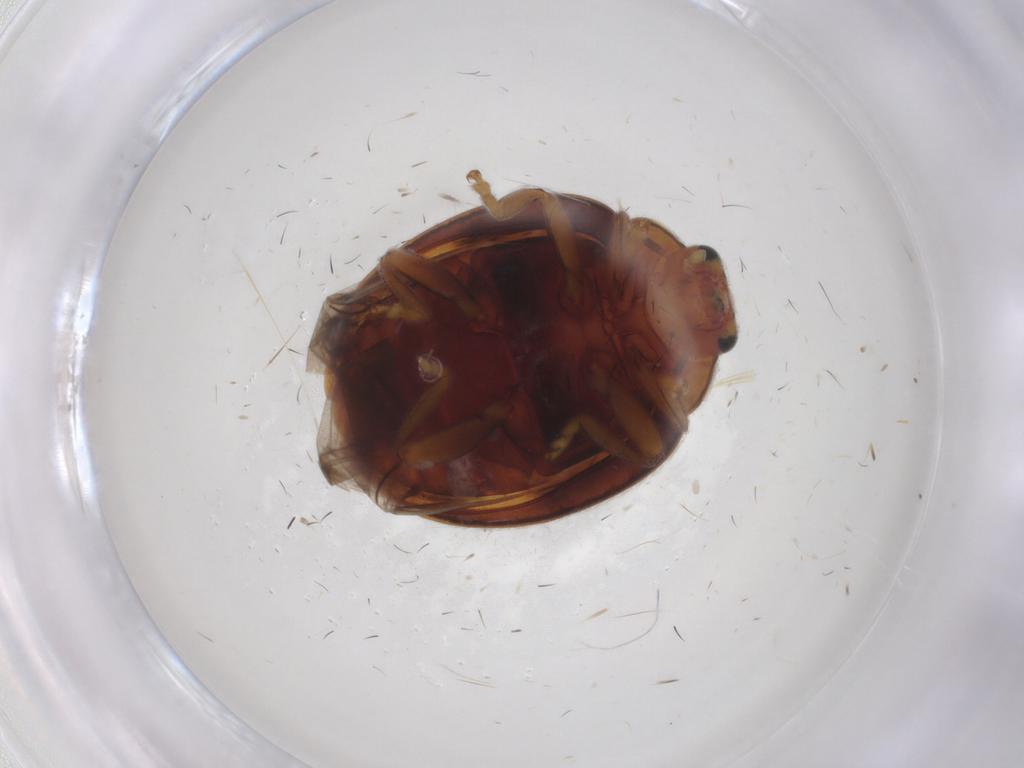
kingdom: Animalia
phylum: Arthropoda
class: Insecta
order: Coleoptera
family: Coccinellidae
